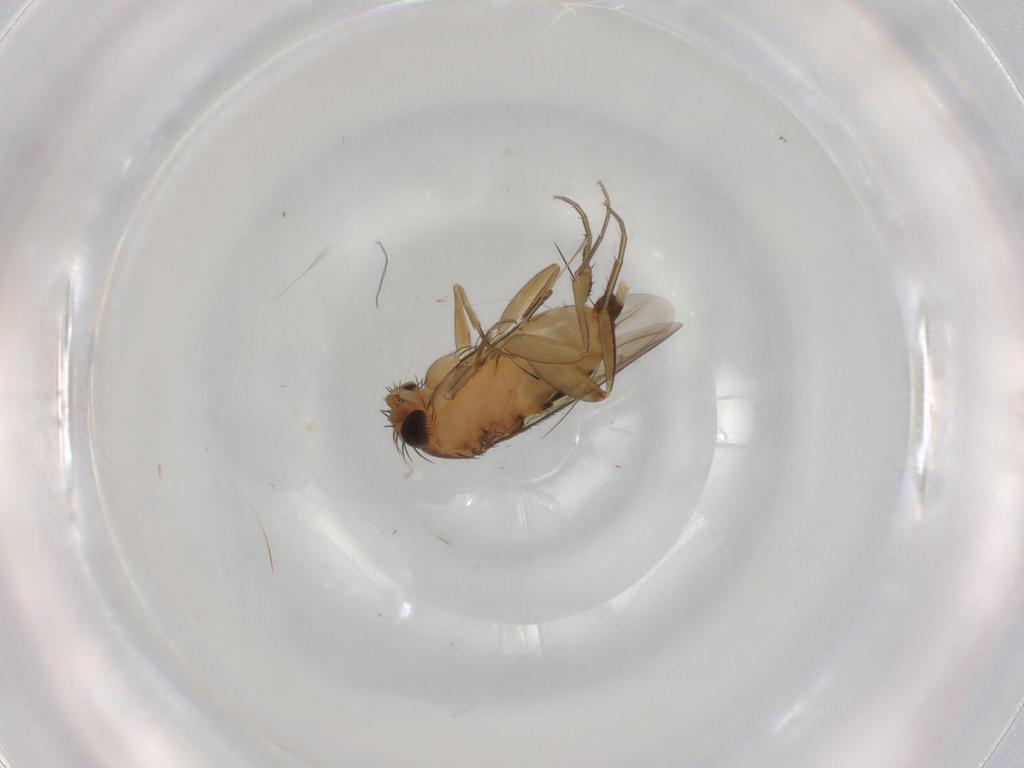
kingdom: Animalia
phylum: Arthropoda
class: Insecta
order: Diptera
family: Phoridae
